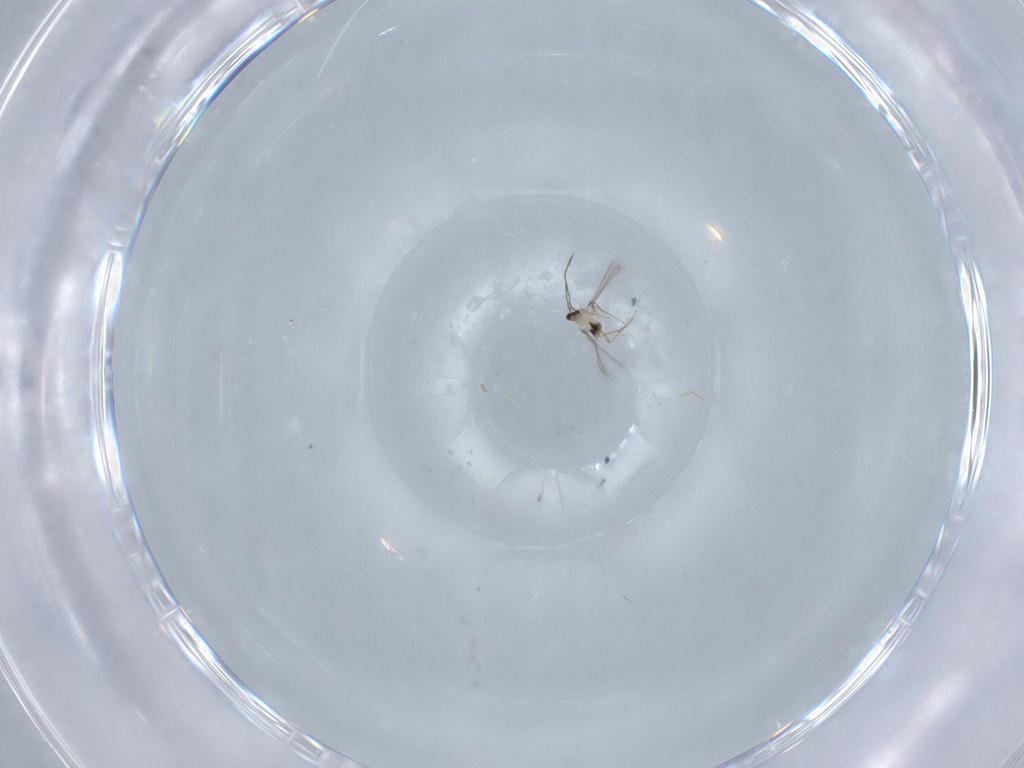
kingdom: Animalia
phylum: Arthropoda
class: Insecta
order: Hymenoptera
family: Mymaridae
